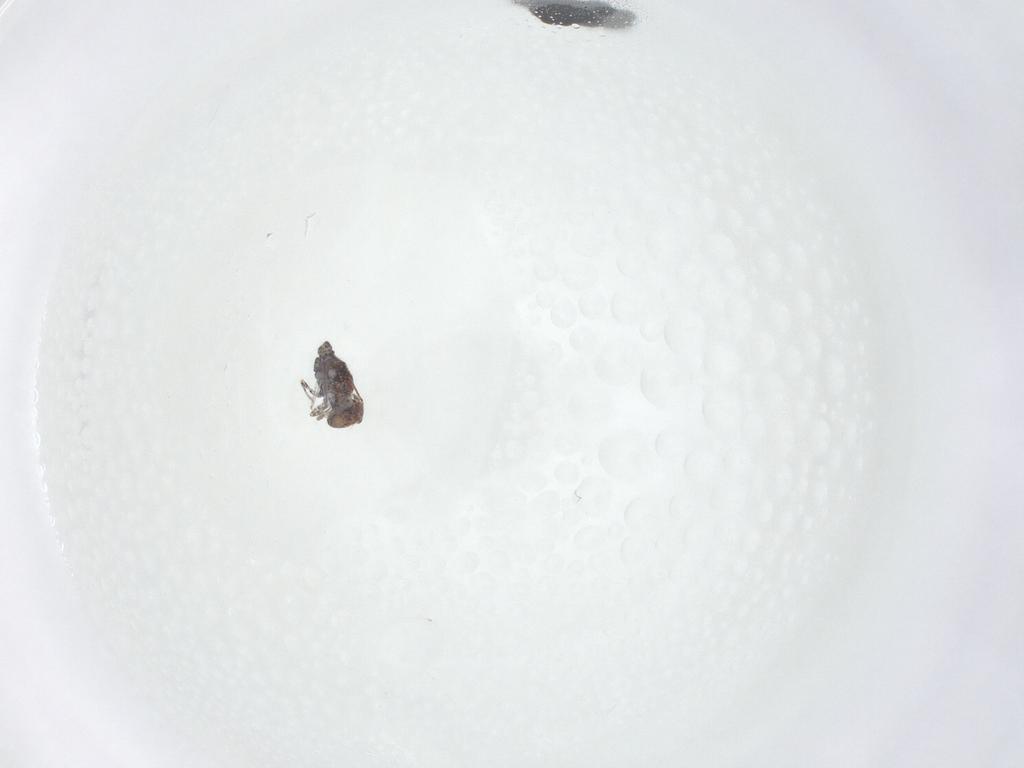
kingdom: Animalia
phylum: Arthropoda
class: Collembola
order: Symphypleona
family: Bourletiellidae
